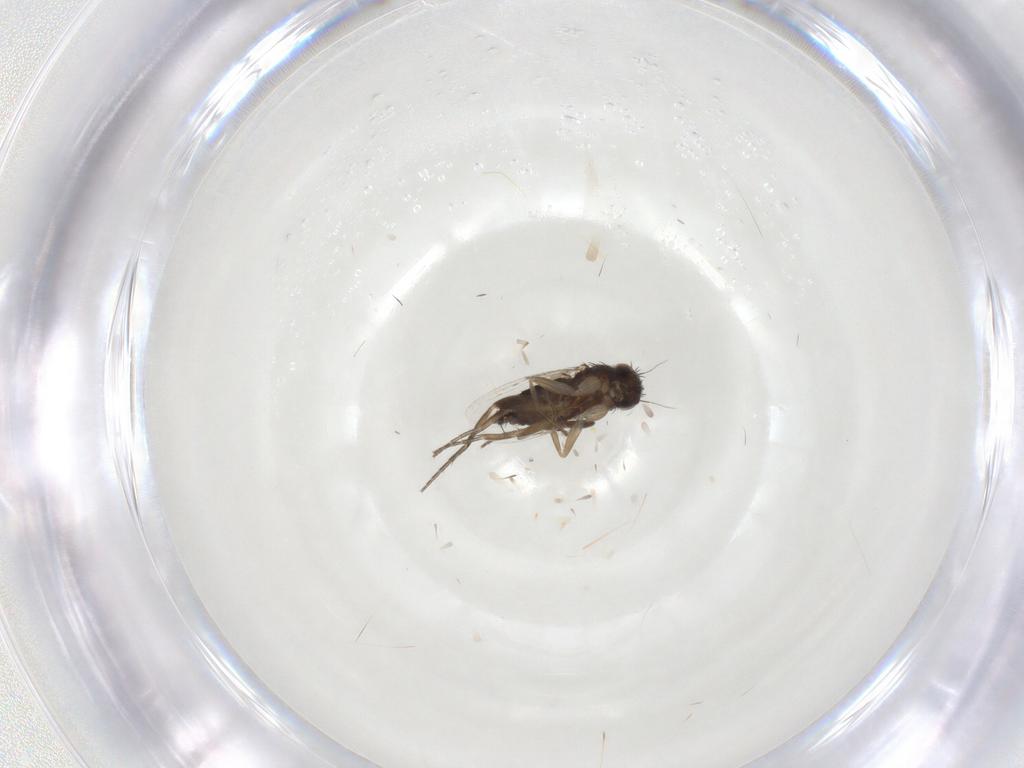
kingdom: Animalia
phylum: Arthropoda
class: Insecta
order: Diptera
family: Phoridae
